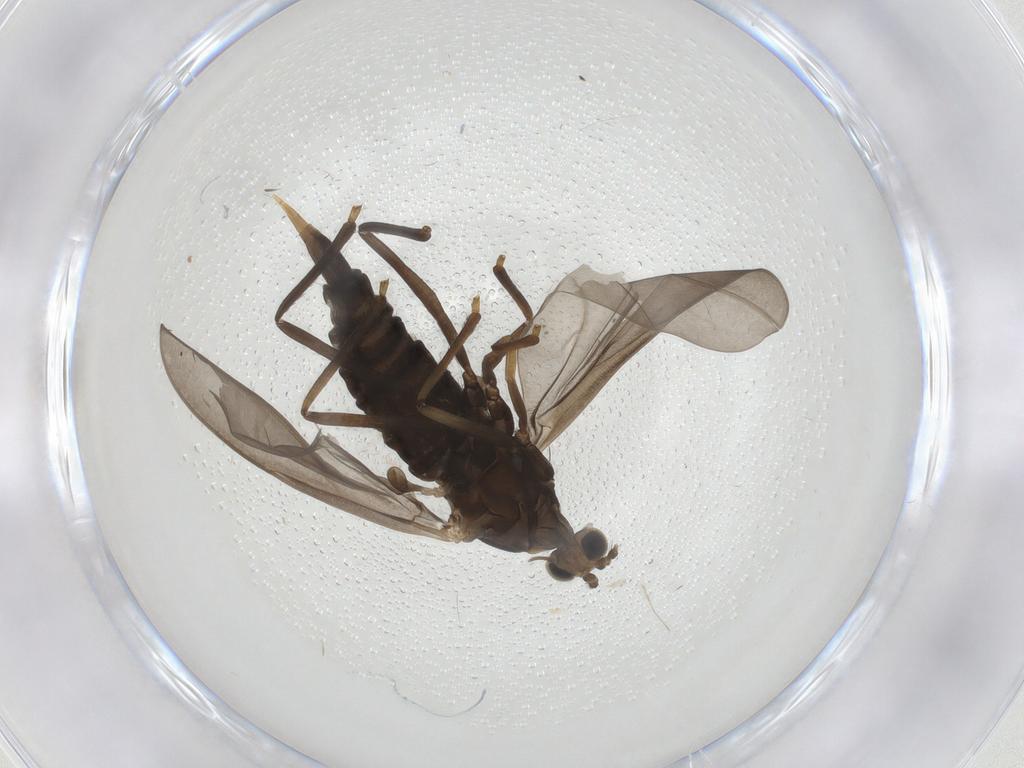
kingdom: Animalia
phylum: Arthropoda
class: Insecta
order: Diptera
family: Cecidomyiidae
